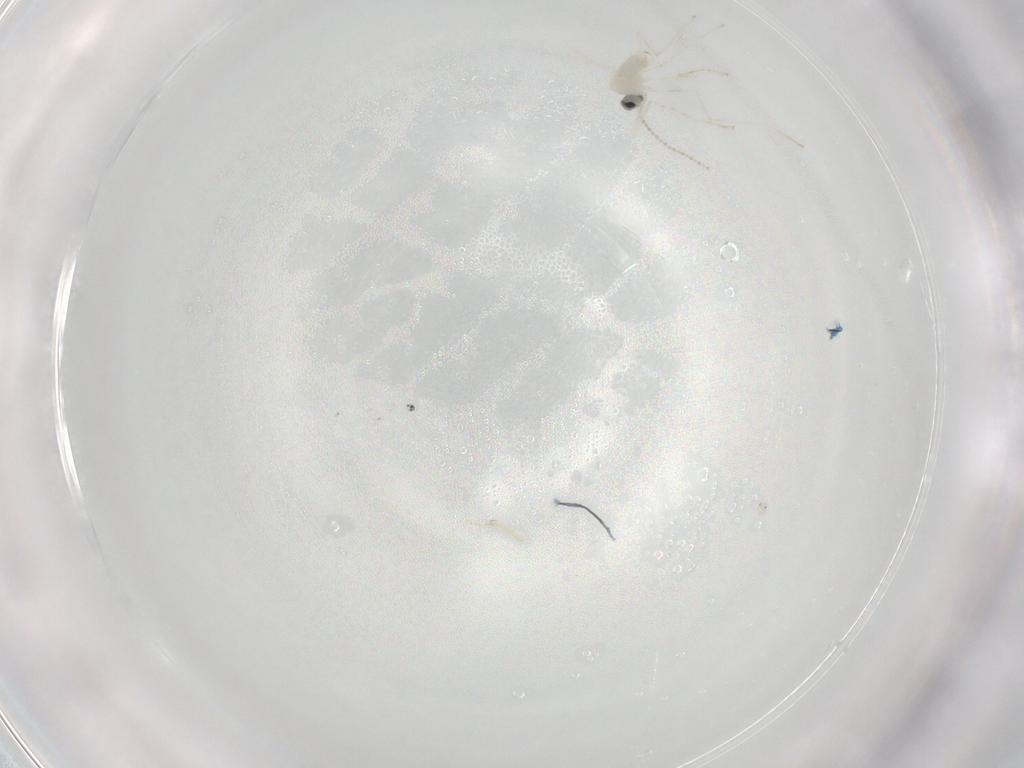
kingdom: Animalia
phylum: Arthropoda
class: Insecta
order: Diptera
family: Cecidomyiidae
